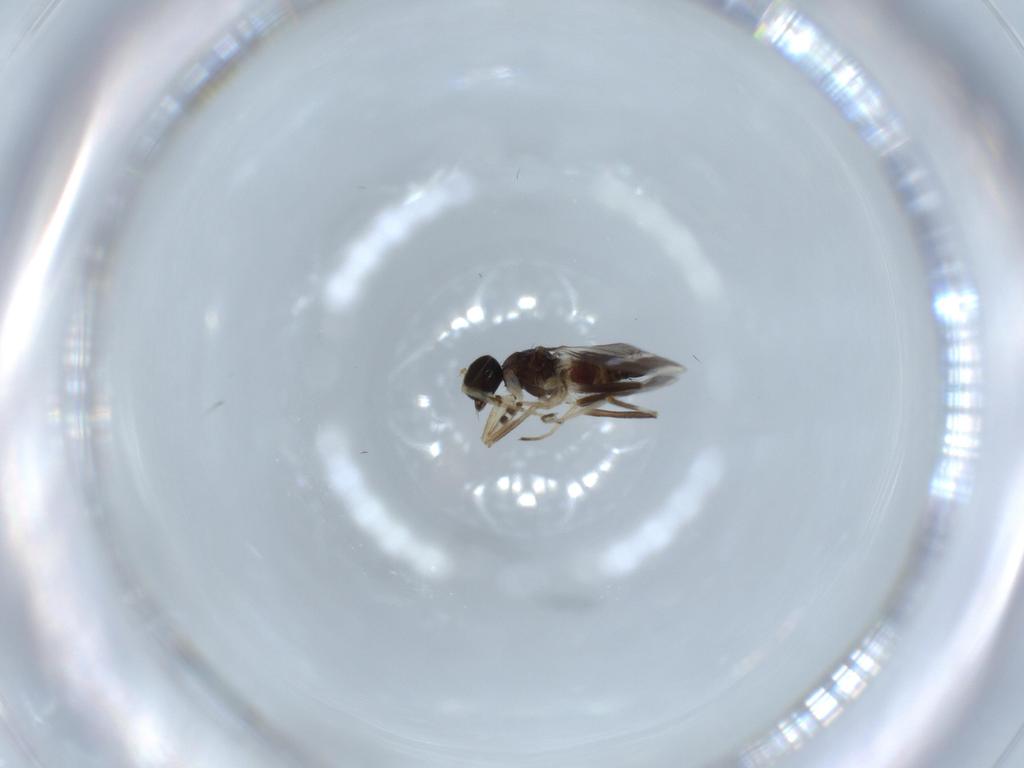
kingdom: Animalia
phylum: Arthropoda
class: Insecta
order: Diptera
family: Hybotidae
